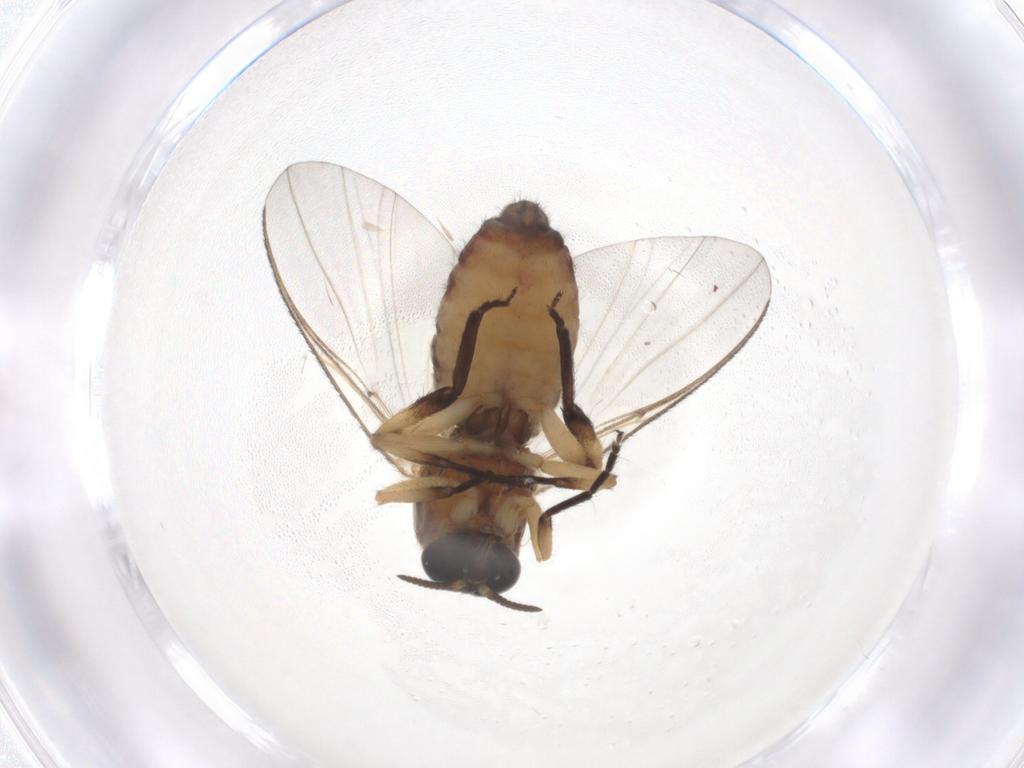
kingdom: Animalia
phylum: Arthropoda
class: Insecta
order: Diptera
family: Simuliidae
